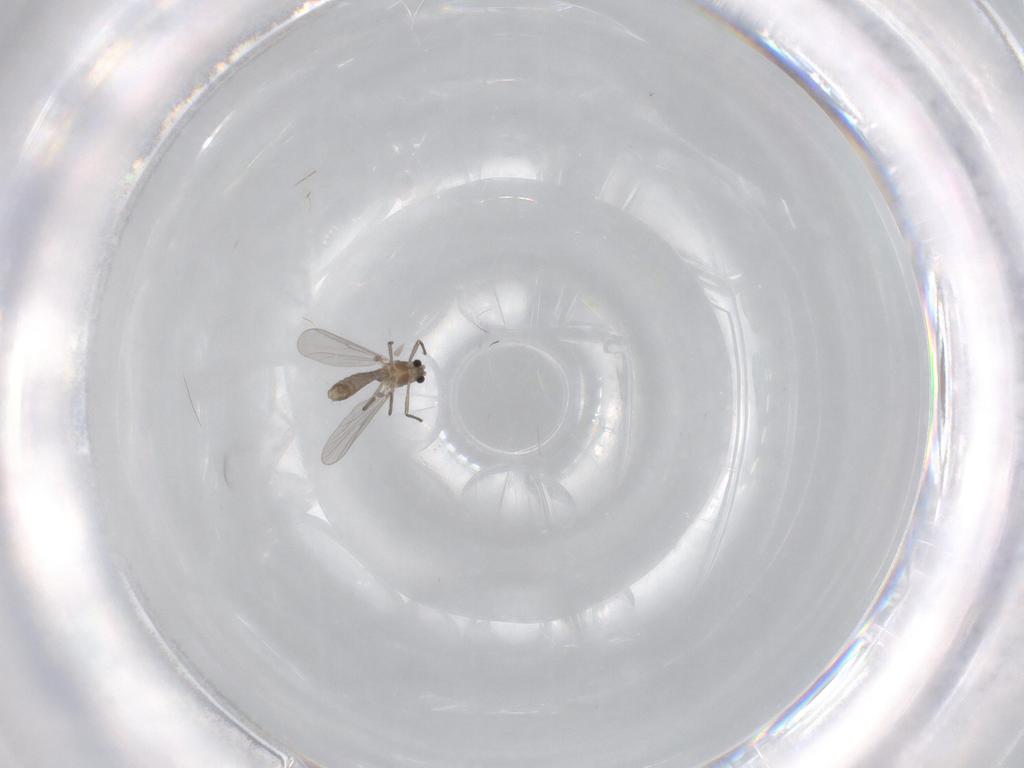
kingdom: Animalia
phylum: Arthropoda
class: Insecta
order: Diptera
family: Chironomidae
